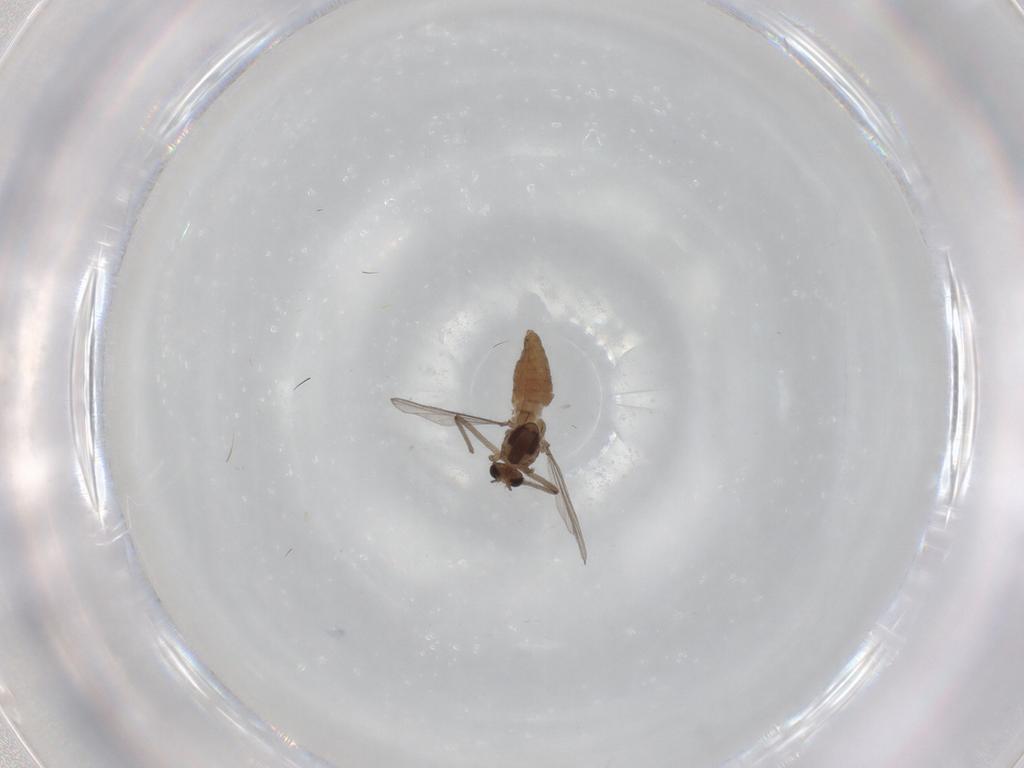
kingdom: Animalia
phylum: Arthropoda
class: Insecta
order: Diptera
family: Chironomidae
